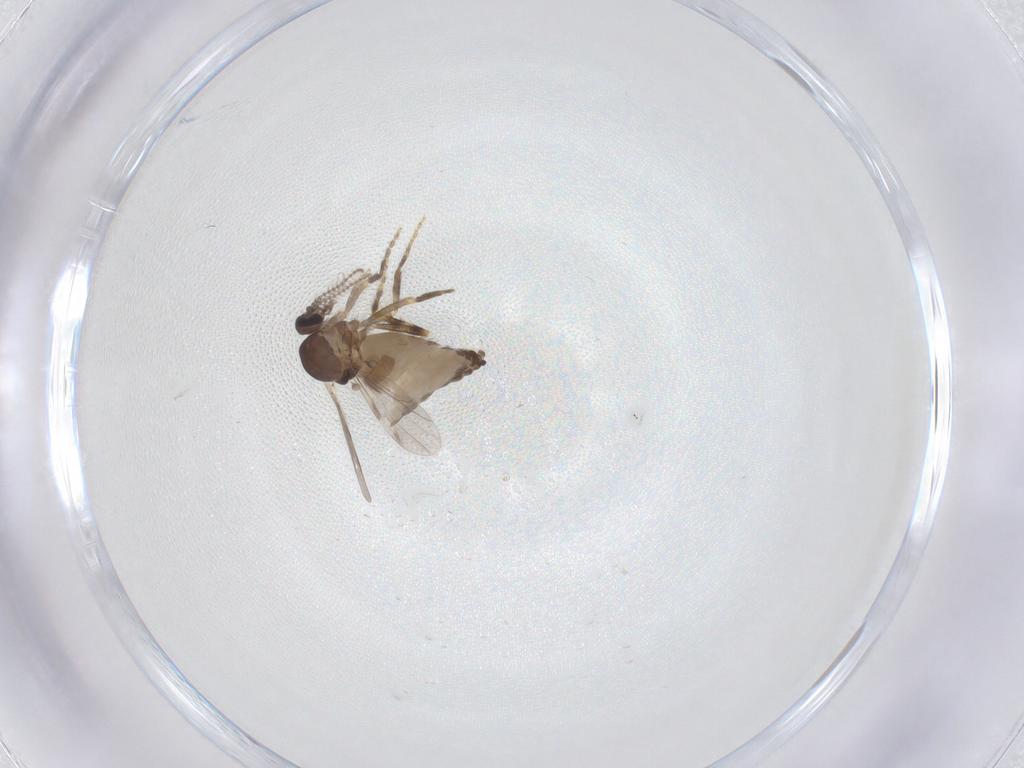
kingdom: Animalia
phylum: Arthropoda
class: Insecta
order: Diptera
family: Ceratopogonidae
